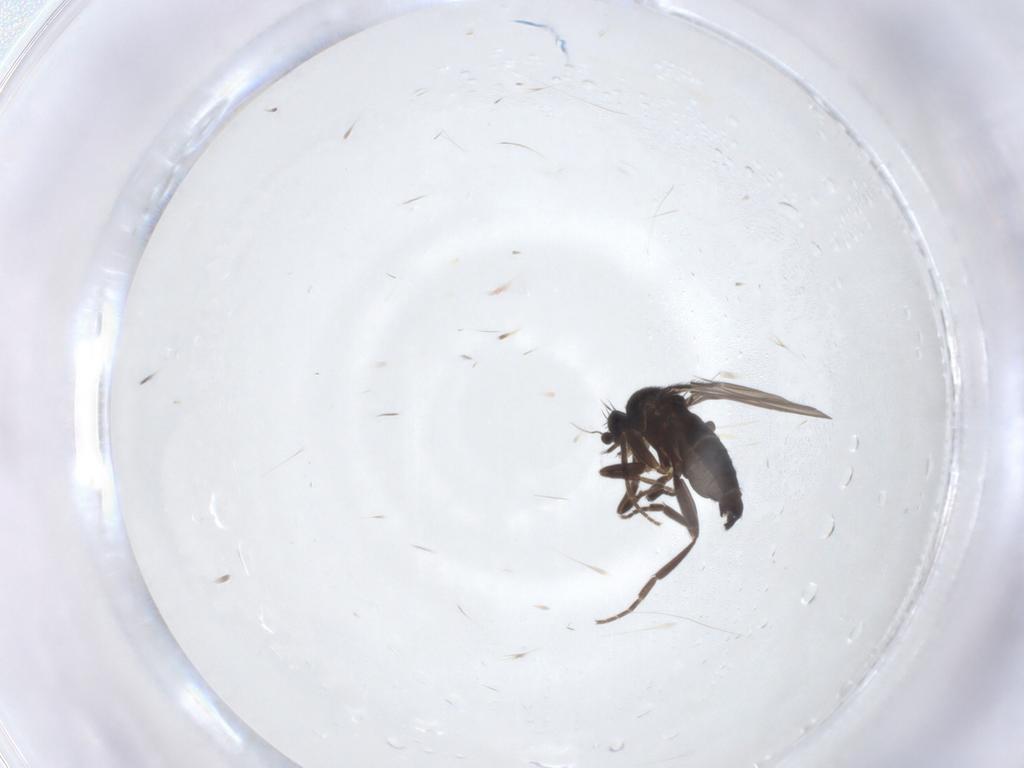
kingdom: Animalia
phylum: Arthropoda
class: Insecta
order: Diptera
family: Phoridae
